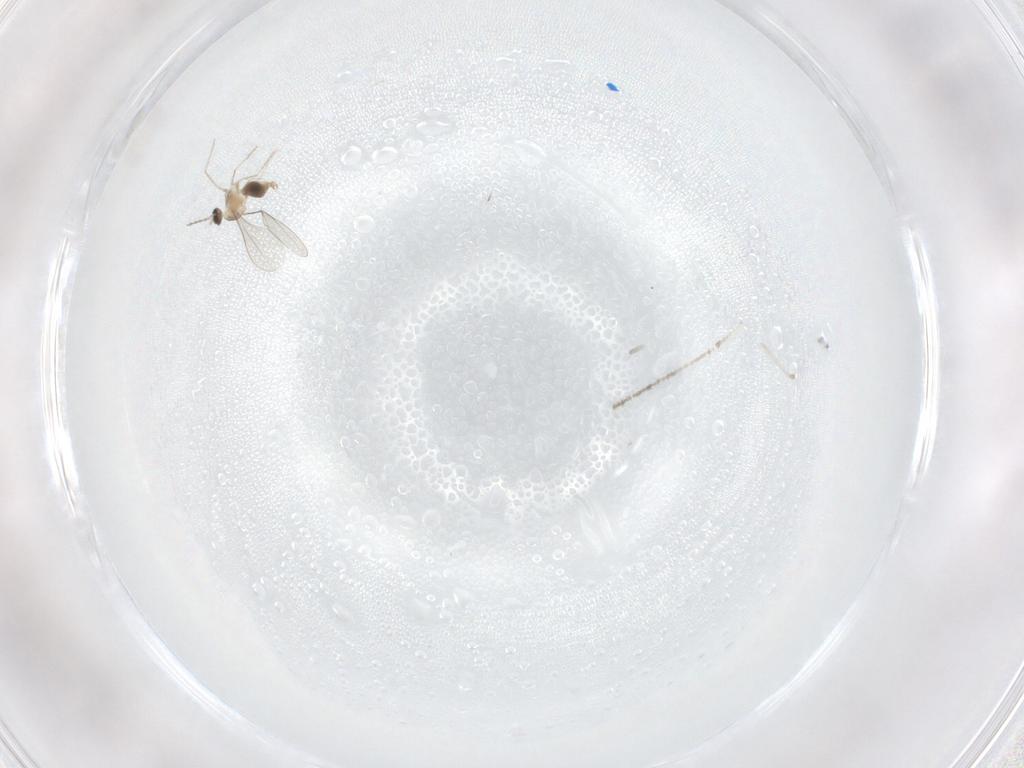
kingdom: Animalia
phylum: Arthropoda
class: Insecta
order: Diptera
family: Cecidomyiidae
